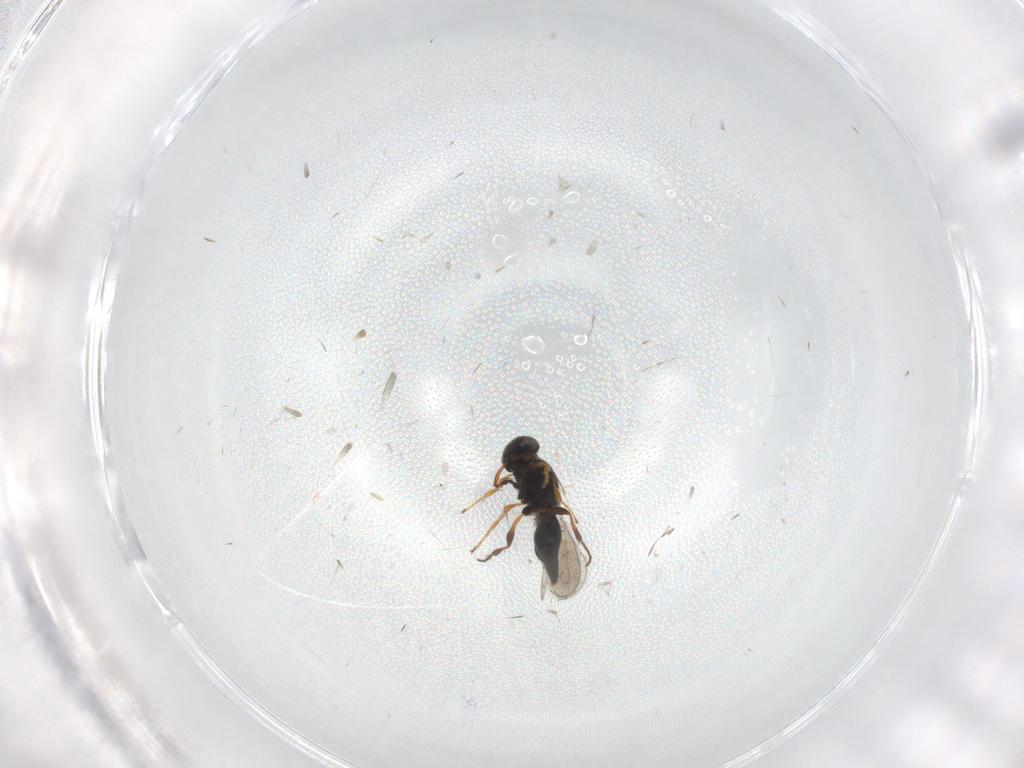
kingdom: Animalia
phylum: Arthropoda
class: Insecta
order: Hymenoptera
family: Platygastridae
